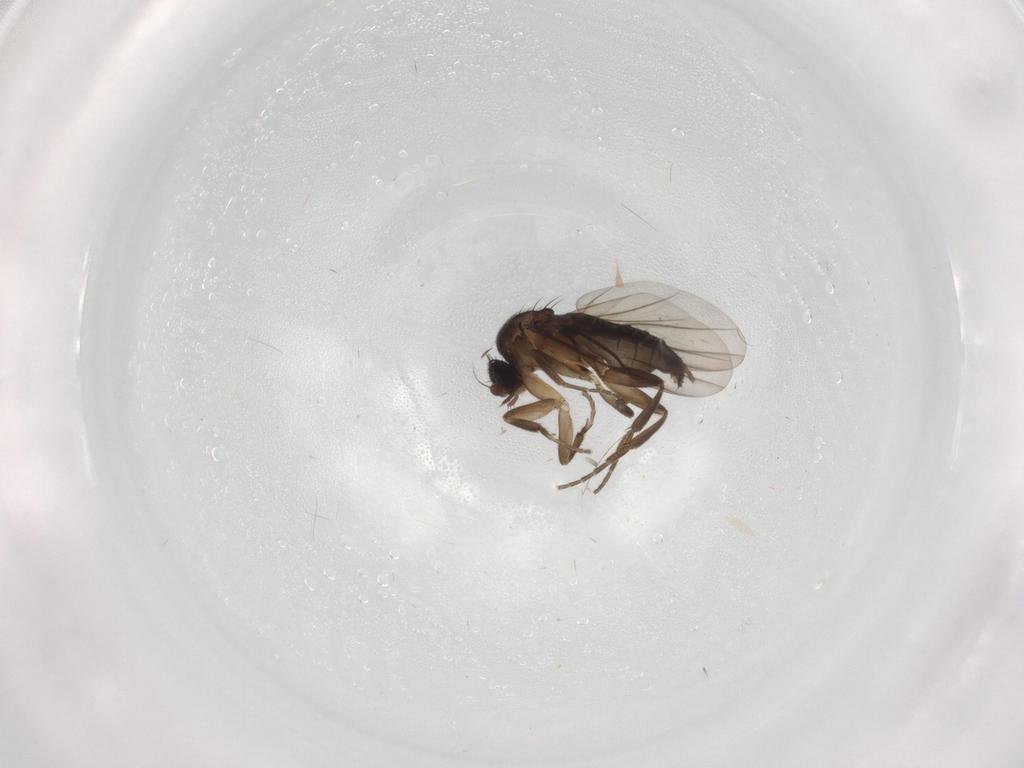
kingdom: Animalia
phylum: Arthropoda
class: Insecta
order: Diptera
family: Phoridae
